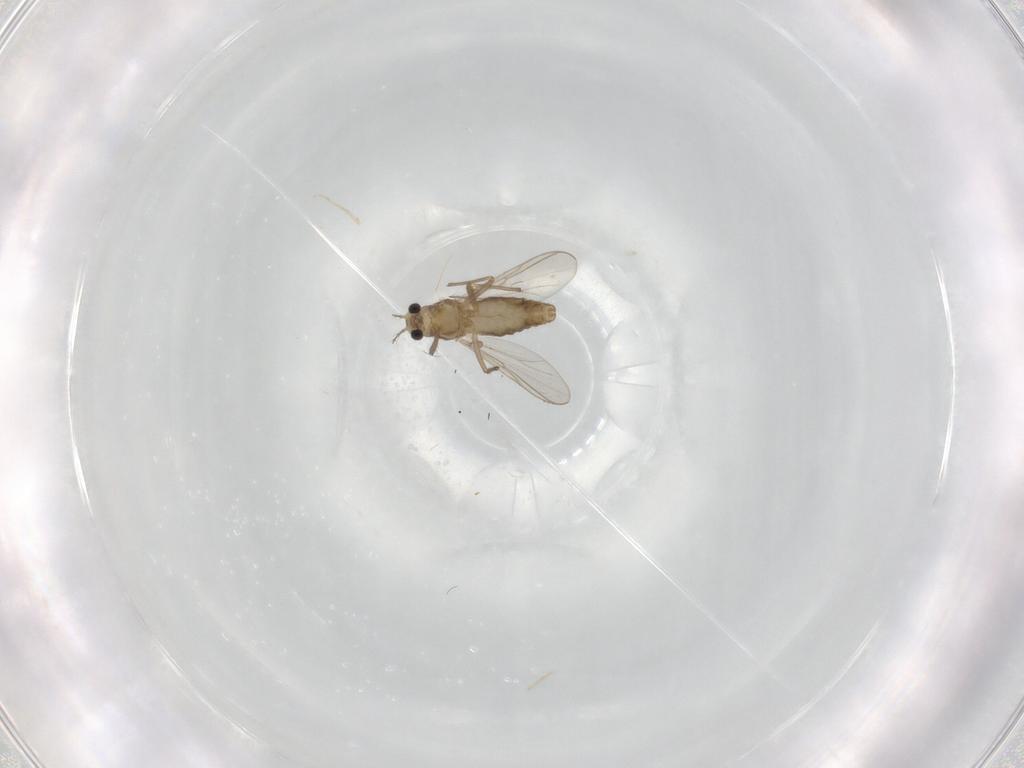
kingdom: Animalia
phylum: Arthropoda
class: Insecta
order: Diptera
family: Chironomidae
